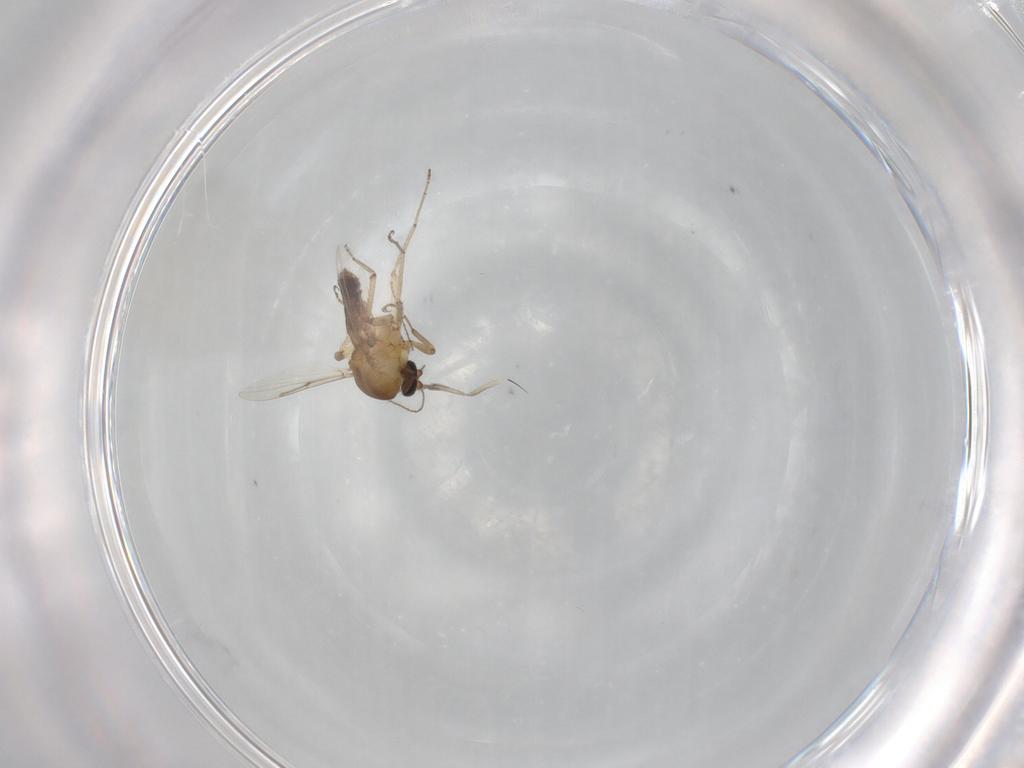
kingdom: Animalia
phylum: Arthropoda
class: Insecta
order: Diptera
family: Ceratopogonidae
